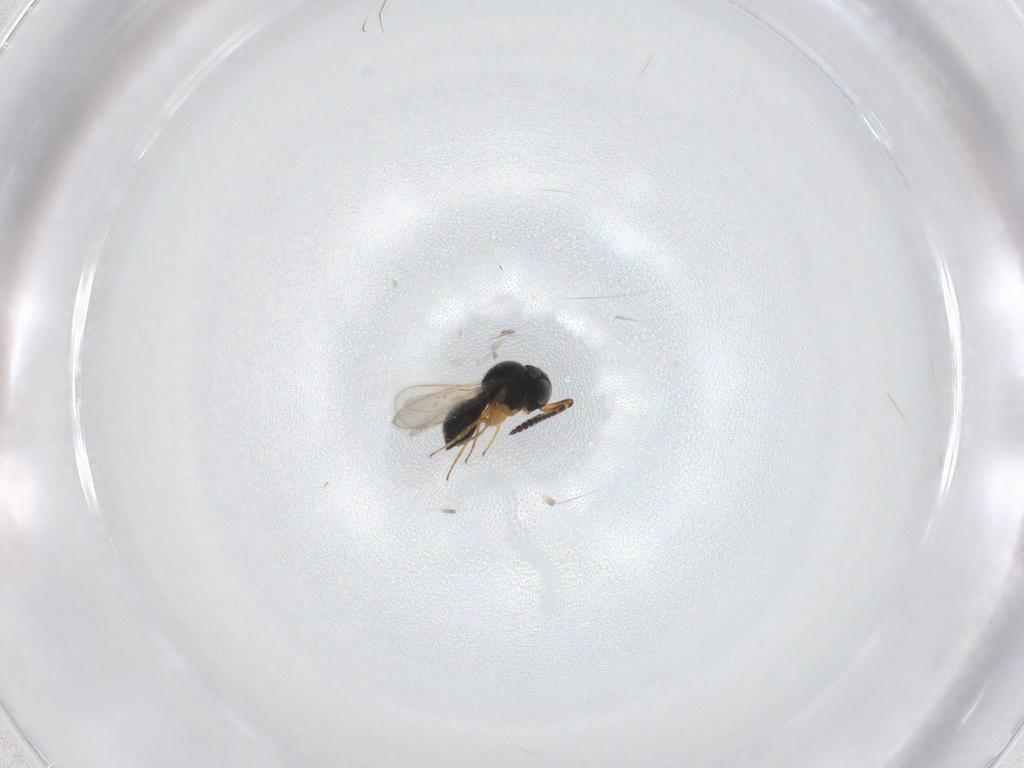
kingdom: Animalia
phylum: Arthropoda
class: Insecta
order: Hymenoptera
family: Scelionidae
